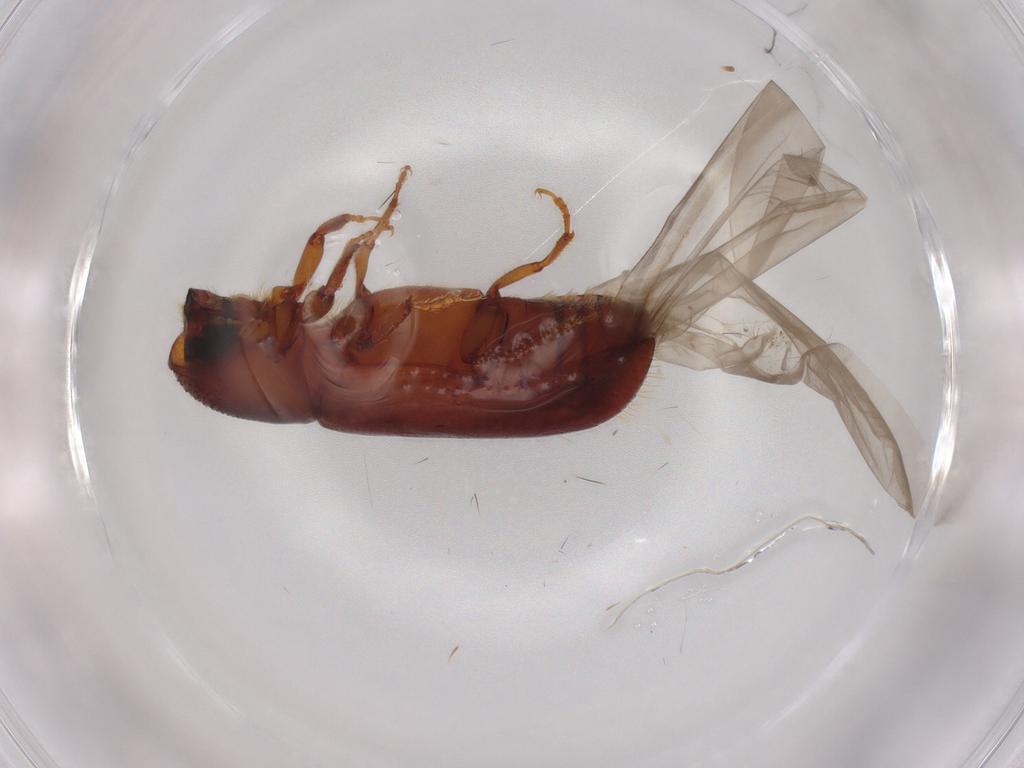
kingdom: Animalia
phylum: Arthropoda
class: Insecta
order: Coleoptera
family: Curculionidae
